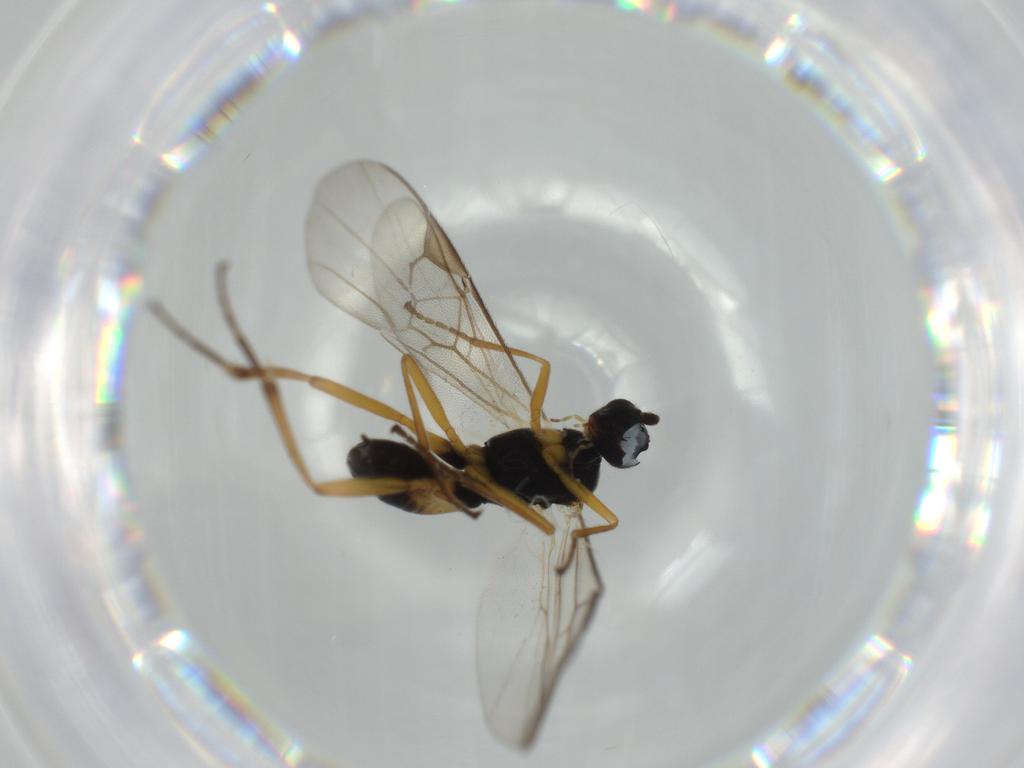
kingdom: Animalia
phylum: Arthropoda
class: Insecta
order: Hymenoptera
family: Braconidae
